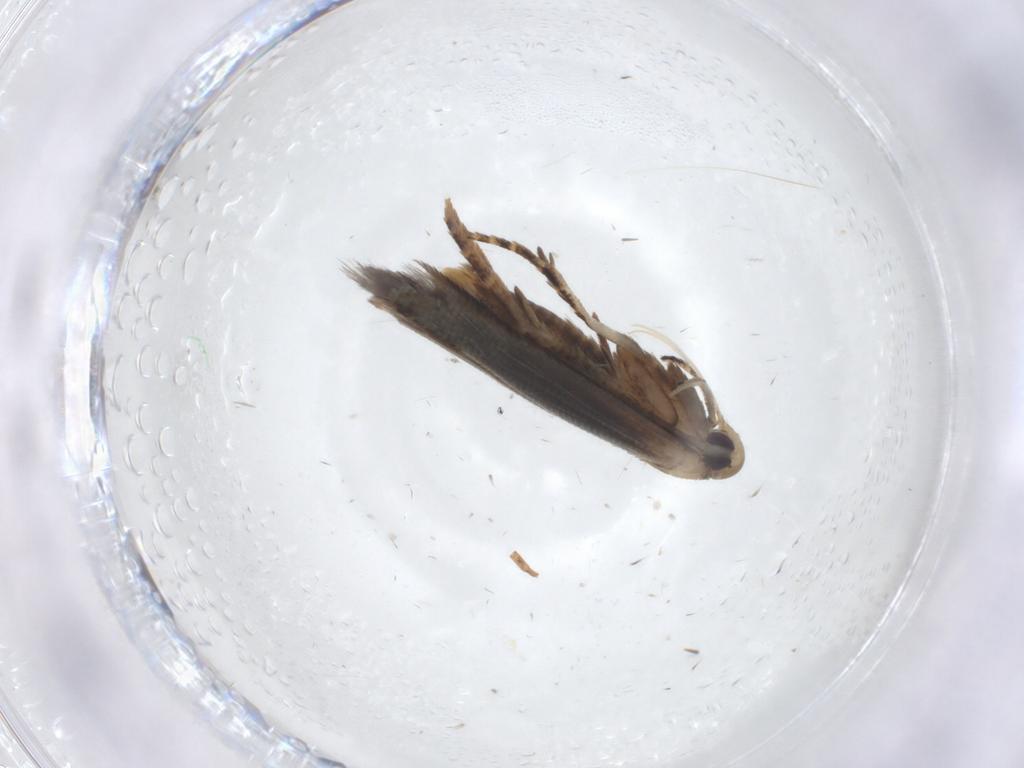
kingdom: Animalia
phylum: Arthropoda
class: Insecta
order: Lepidoptera
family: Cosmopterigidae
